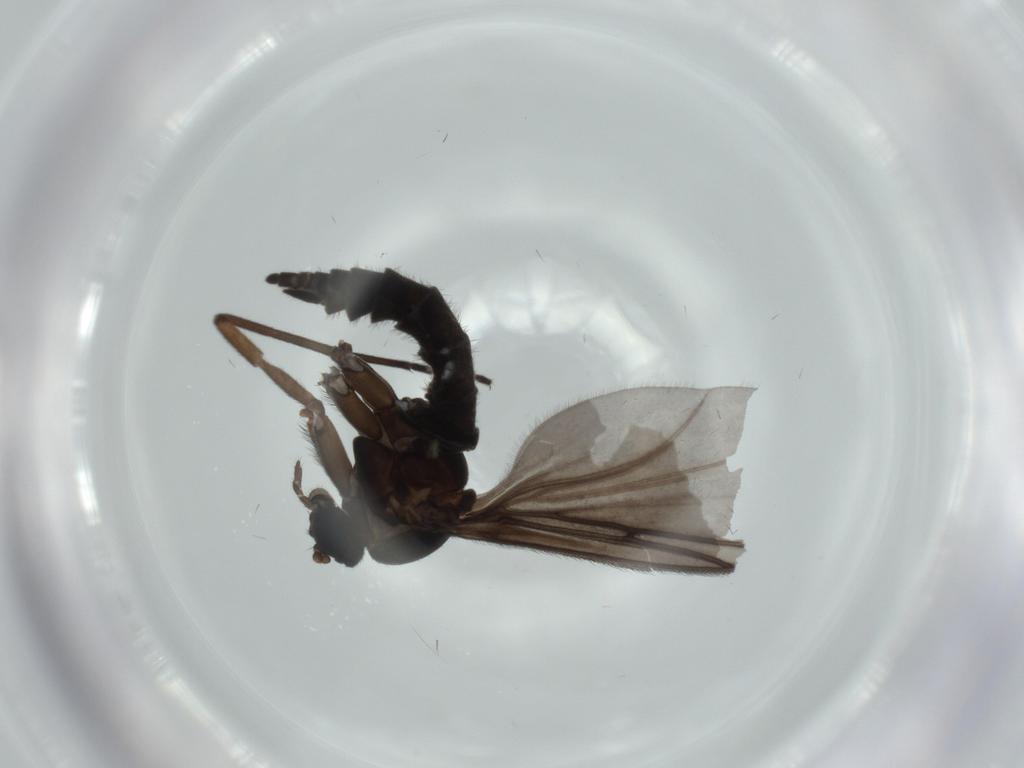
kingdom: Animalia
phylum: Arthropoda
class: Insecta
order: Diptera
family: Sciaridae
